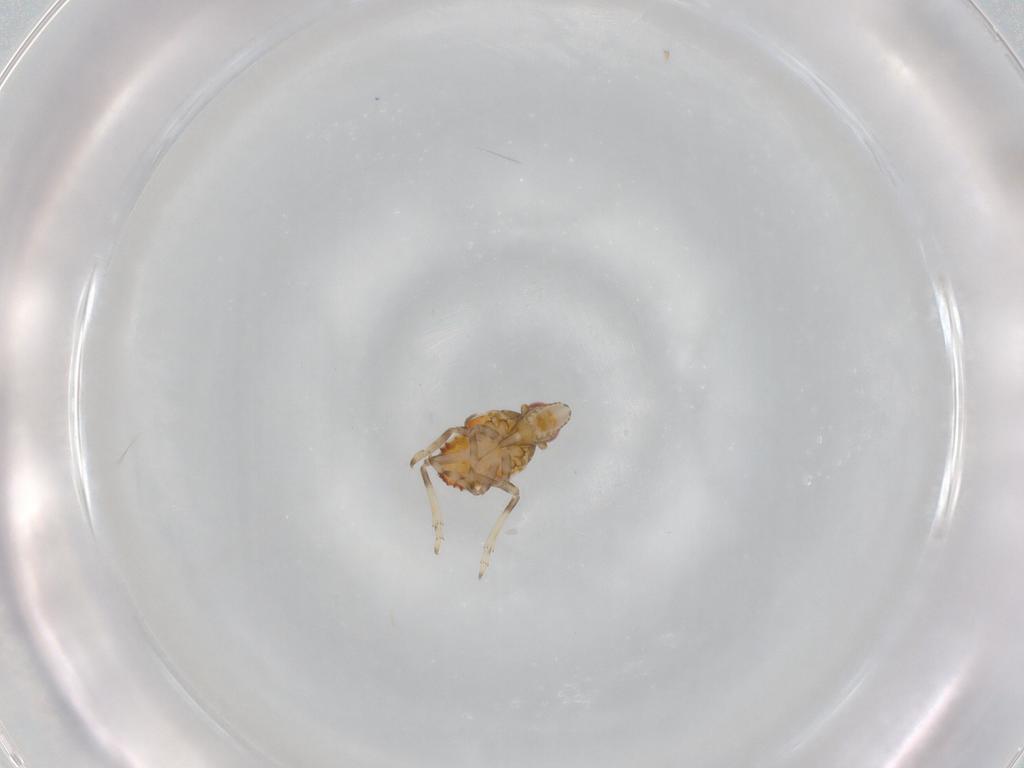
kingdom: Animalia
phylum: Arthropoda
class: Insecta
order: Hemiptera
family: Tropiduchidae
